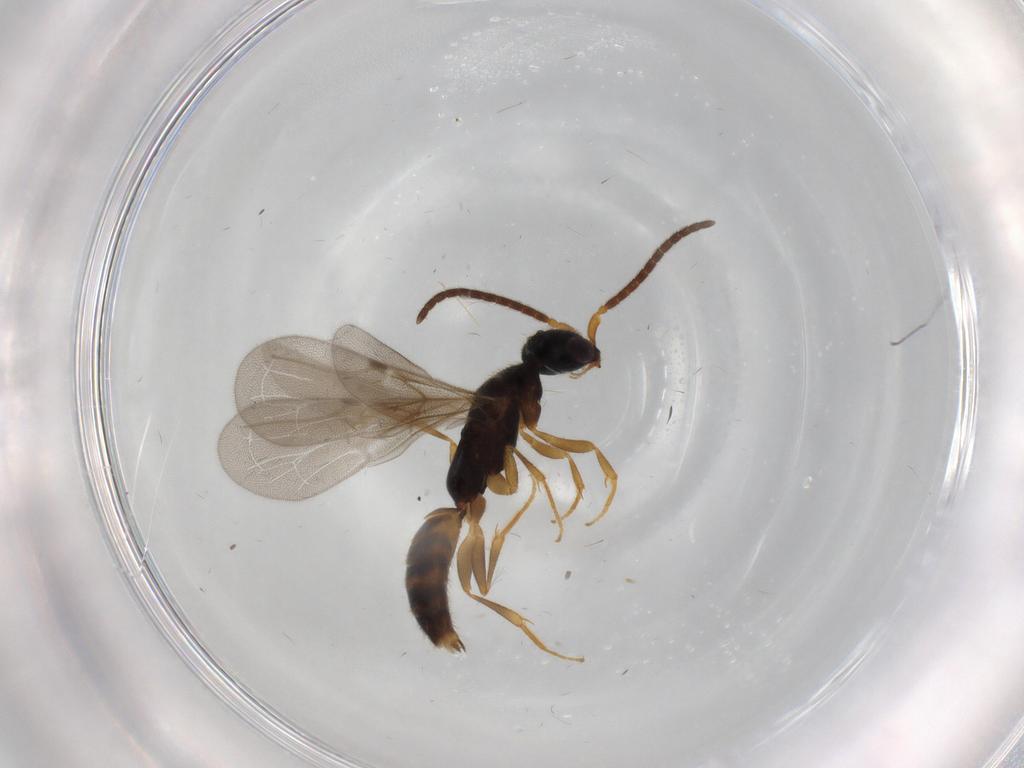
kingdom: Animalia
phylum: Arthropoda
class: Insecta
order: Hymenoptera
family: Bethylidae
